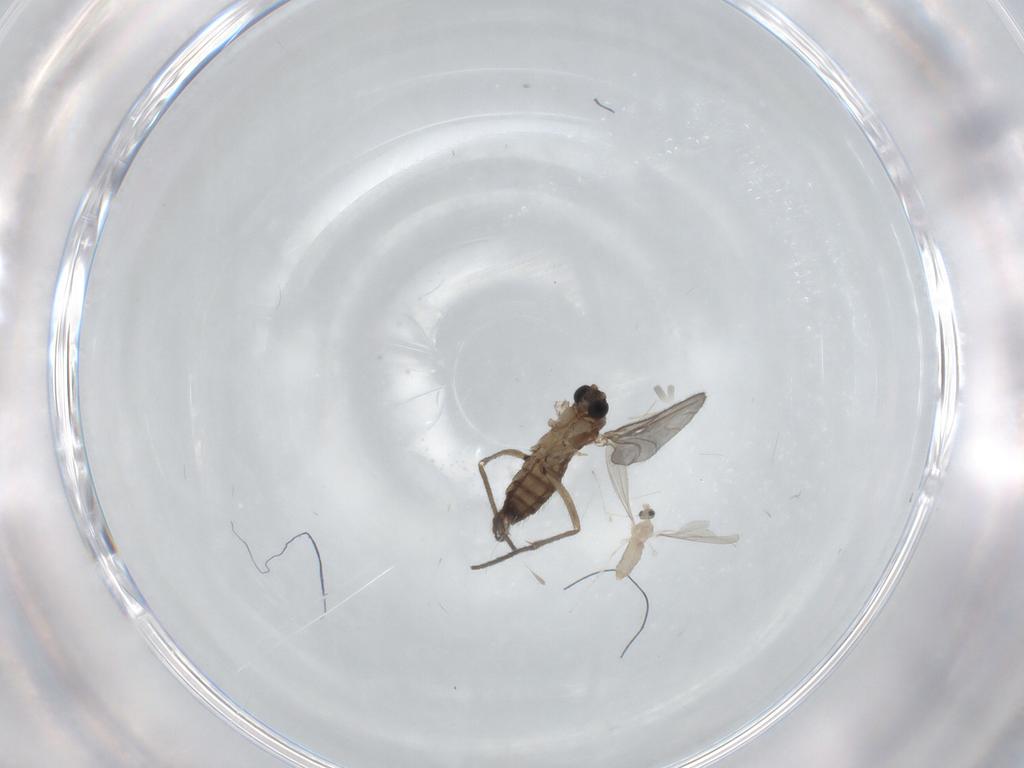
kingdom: Animalia
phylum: Arthropoda
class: Insecta
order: Diptera
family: Sciaridae
